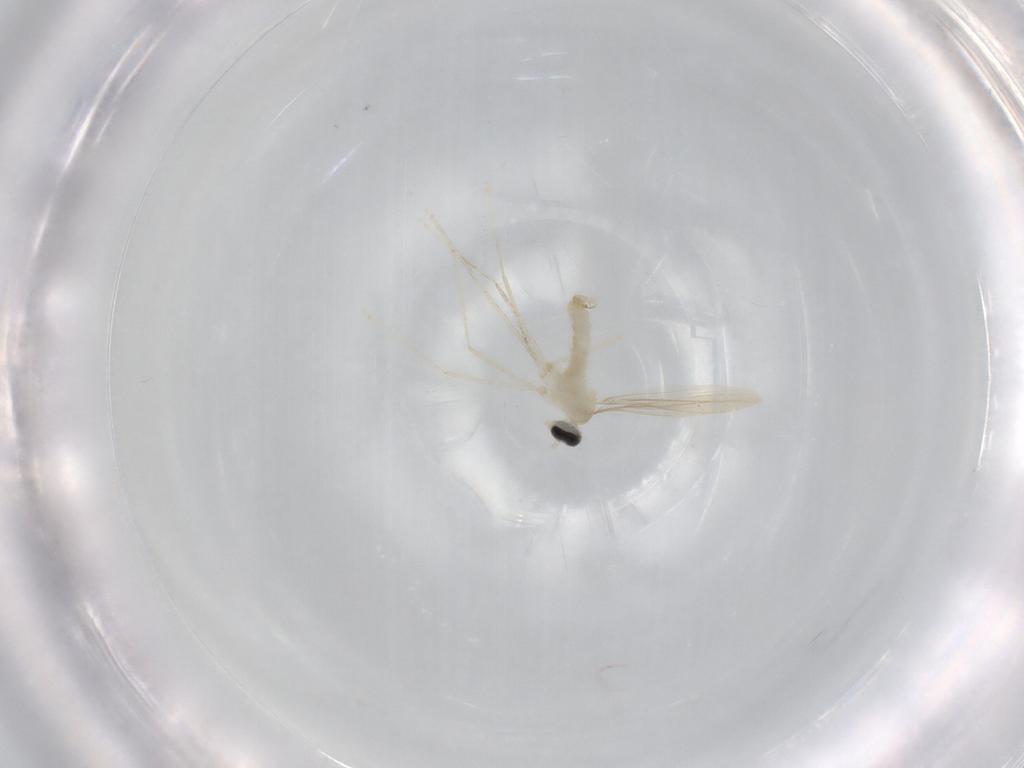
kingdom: Animalia
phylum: Arthropoda
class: Insecta
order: Diptera
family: Cecidomyiidae
